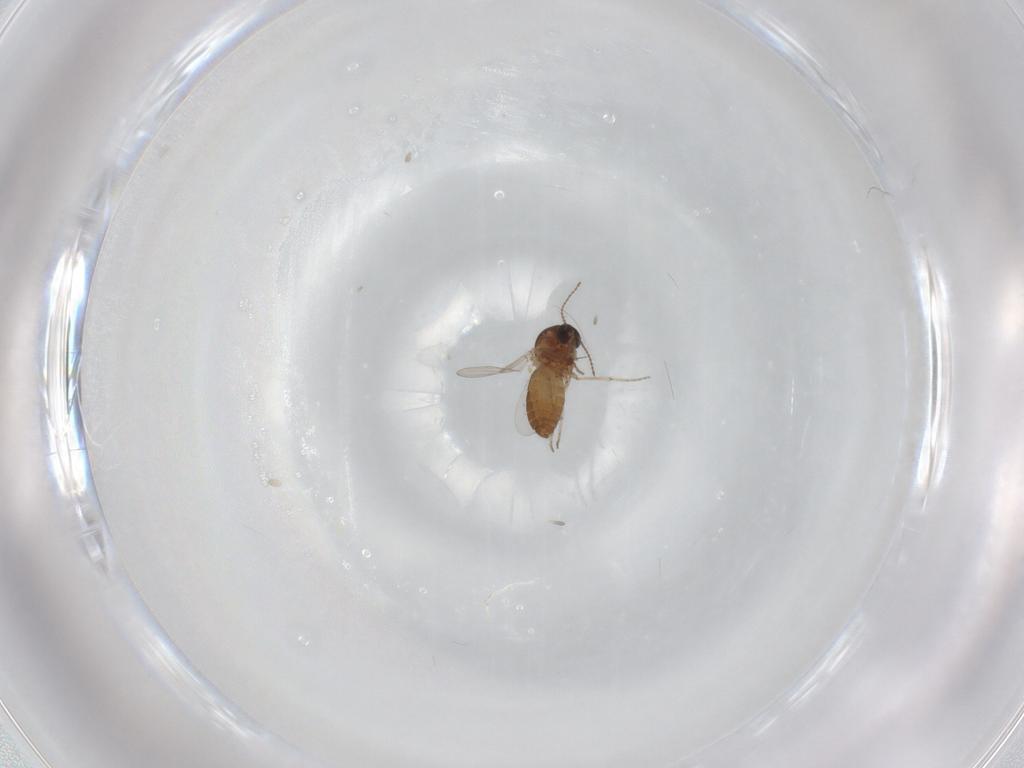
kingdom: Animalia
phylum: Arthropoda
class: Insecta
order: Diptera
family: Ceratopogonidae
